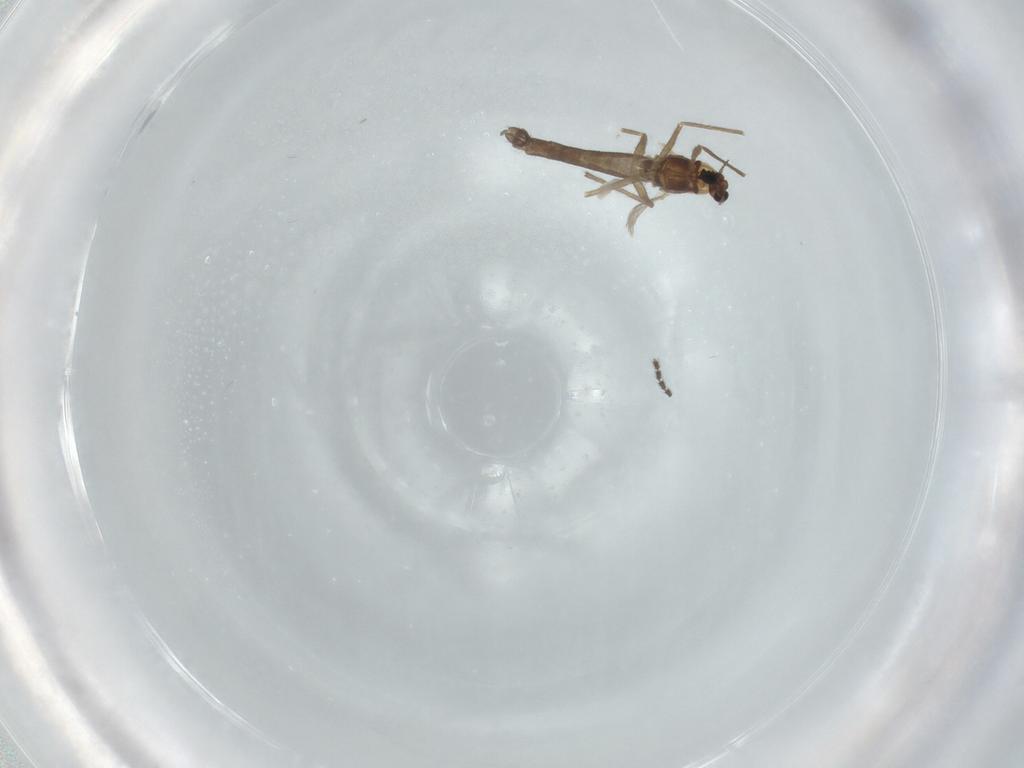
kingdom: Animalia
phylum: Arthropoda
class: Insecta
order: Diptera
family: Chironomidae
